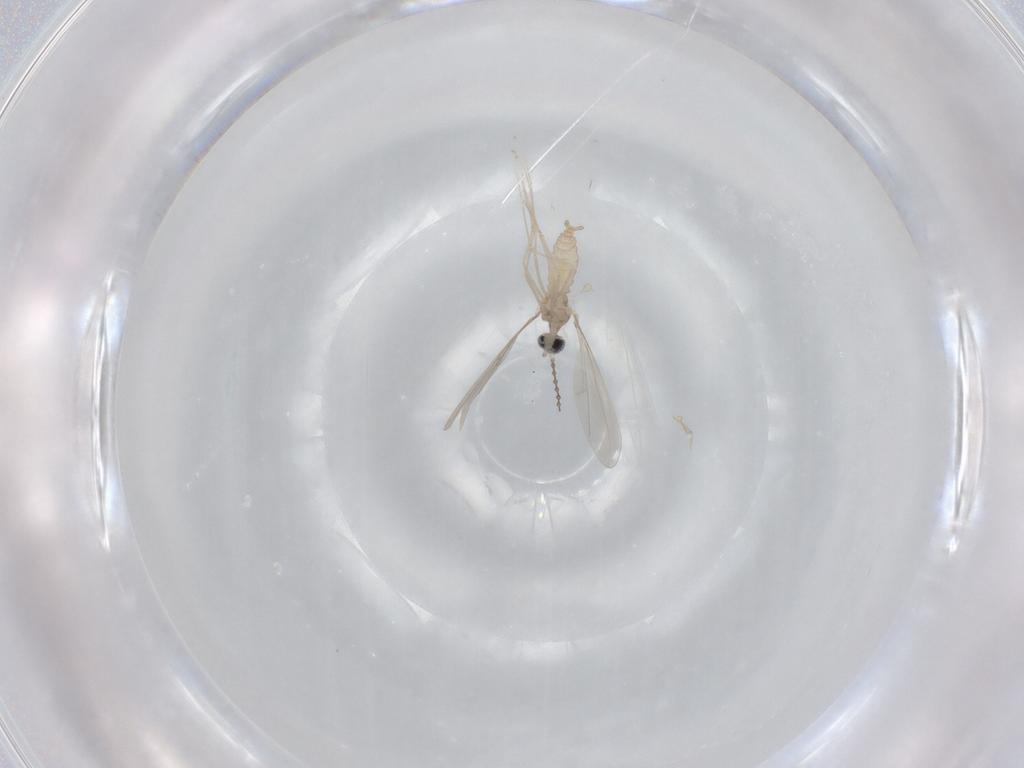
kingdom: Animalia
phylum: Arthropoda
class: Insecta
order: Diptera
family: Cecidomyiidae
